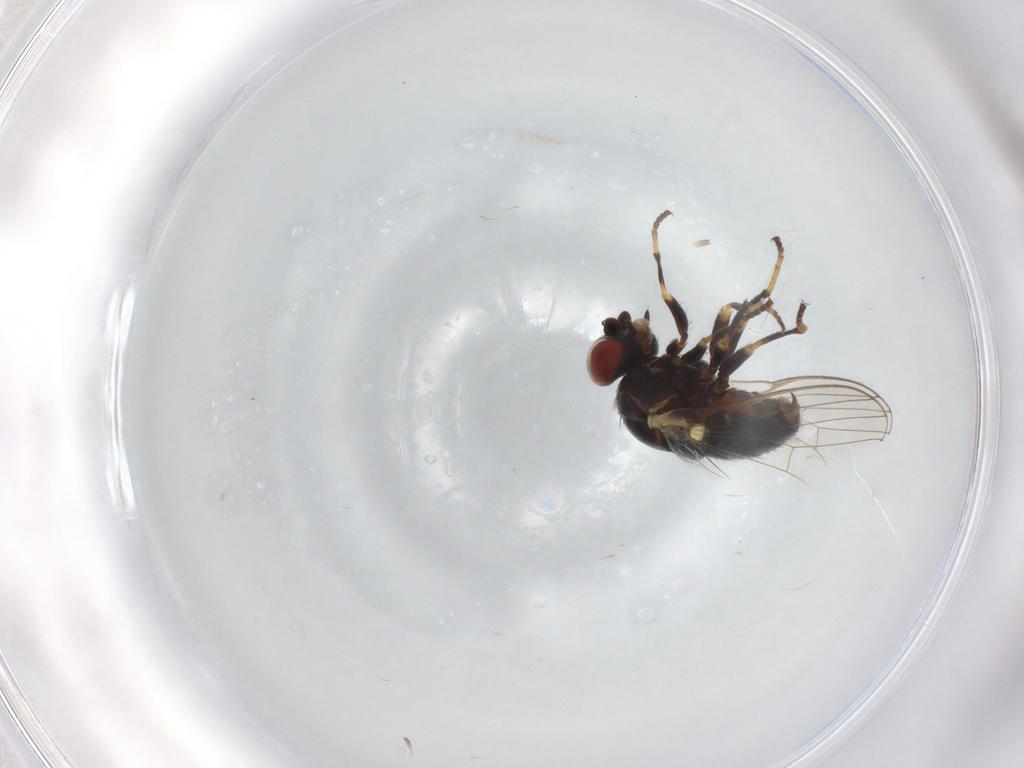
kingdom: Animalia
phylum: Arthropoda
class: Insecta
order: Diptera
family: Chamaemyiidae
